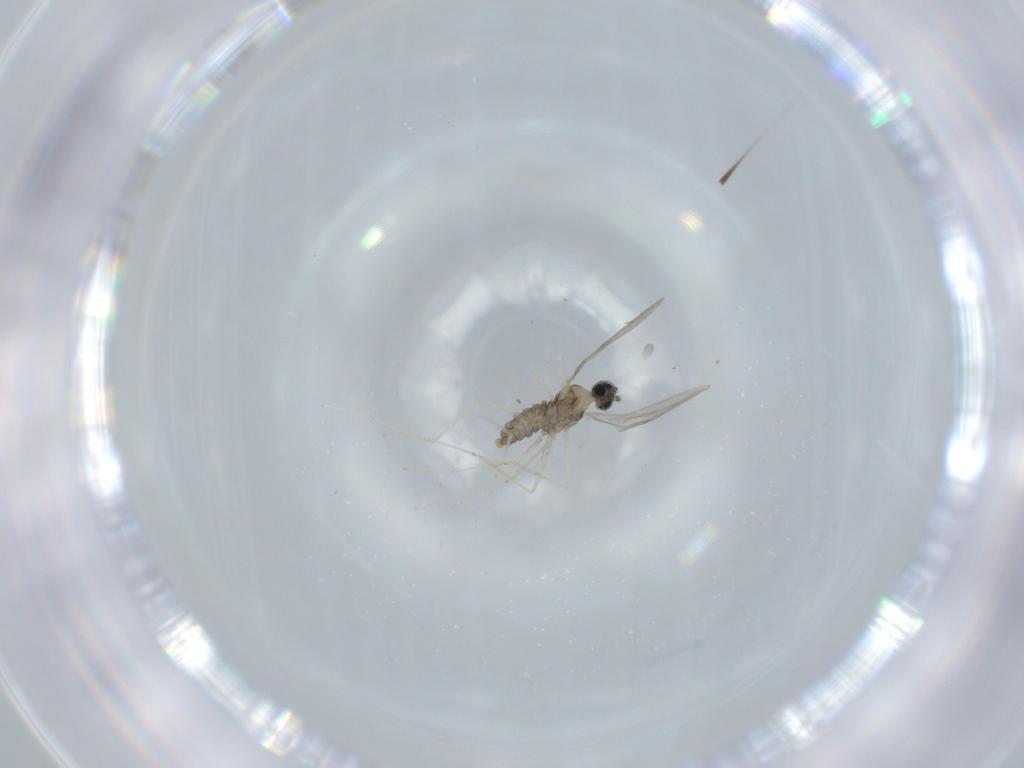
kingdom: Animalia
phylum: Arthropoda
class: Insecta
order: Diptera
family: Cecidomyiidae
